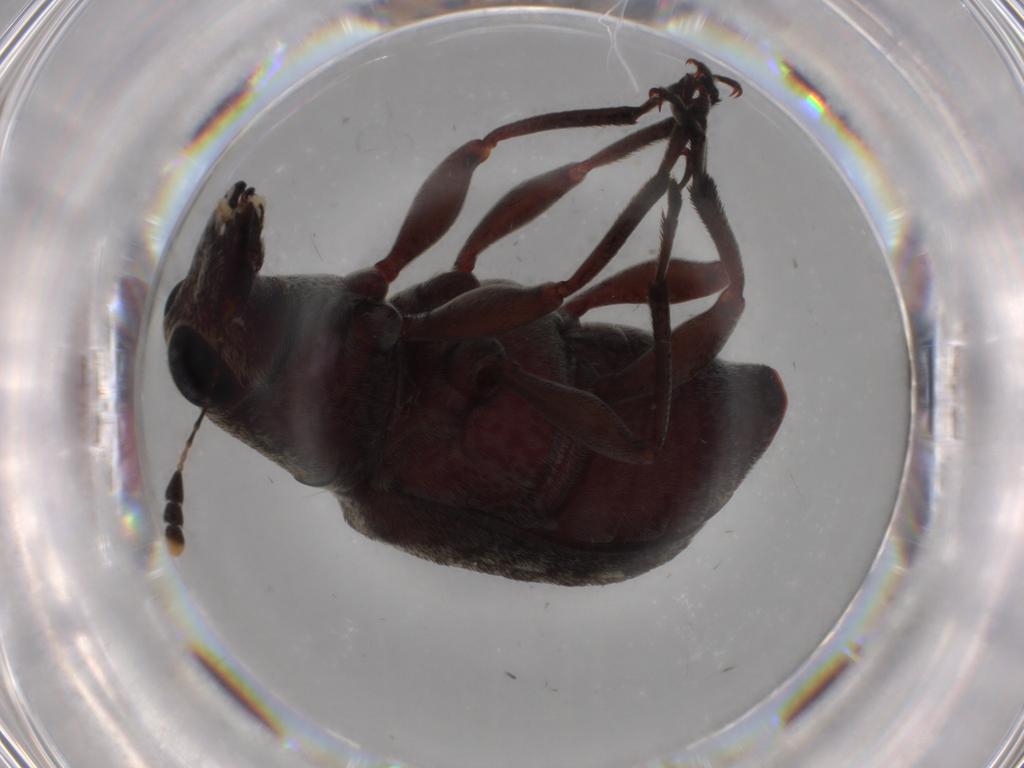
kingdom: Animalia
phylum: Arthropoda
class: Insecta
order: Coleoptera
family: Anthribidae
